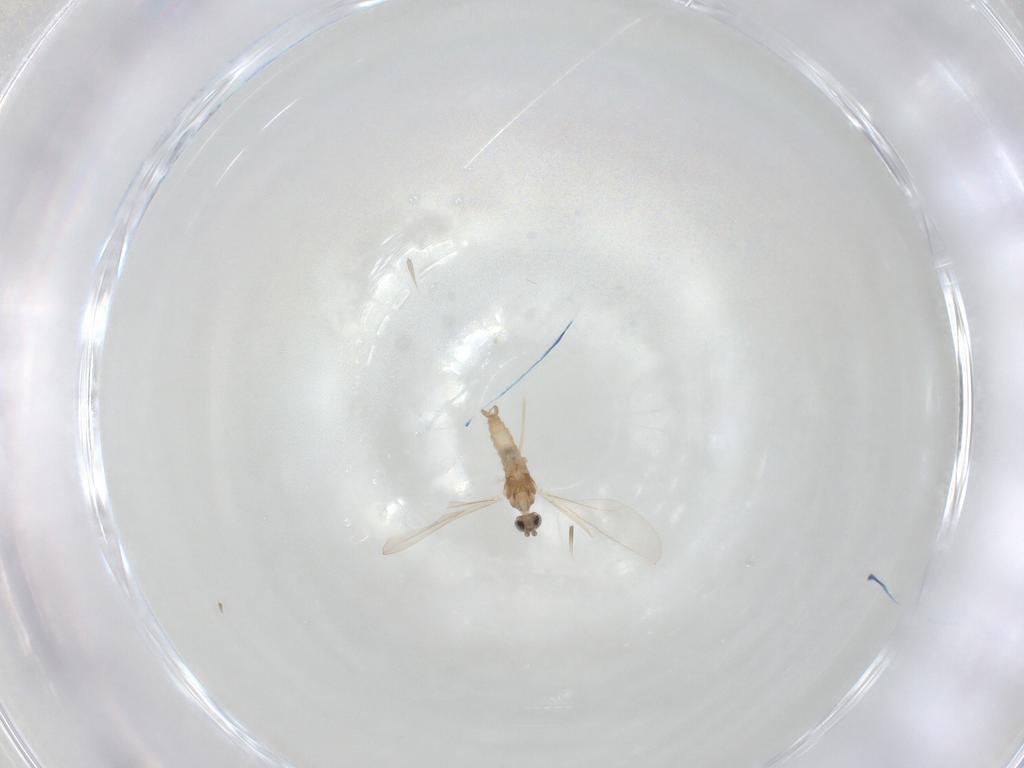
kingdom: Animalia
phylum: Arthropoda
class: Insecta
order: Diptera
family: Cecidomyiidae
